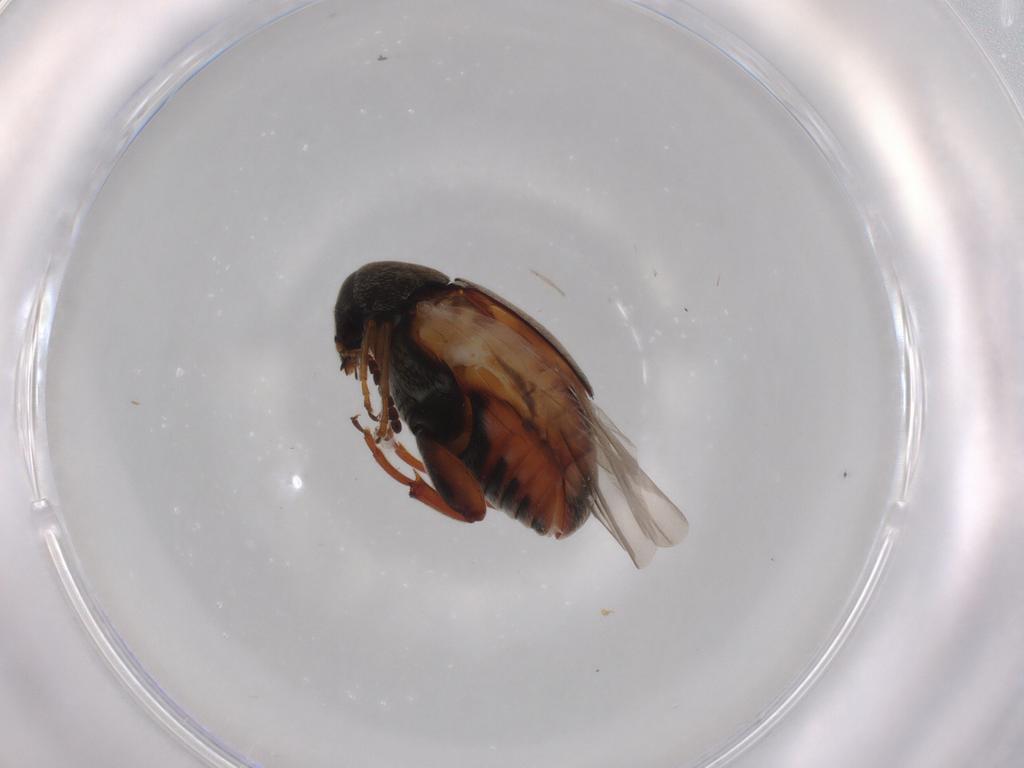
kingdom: Animalia
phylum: Arthropoda
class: Insecta
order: Coleoptera
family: Chrysomelidae
